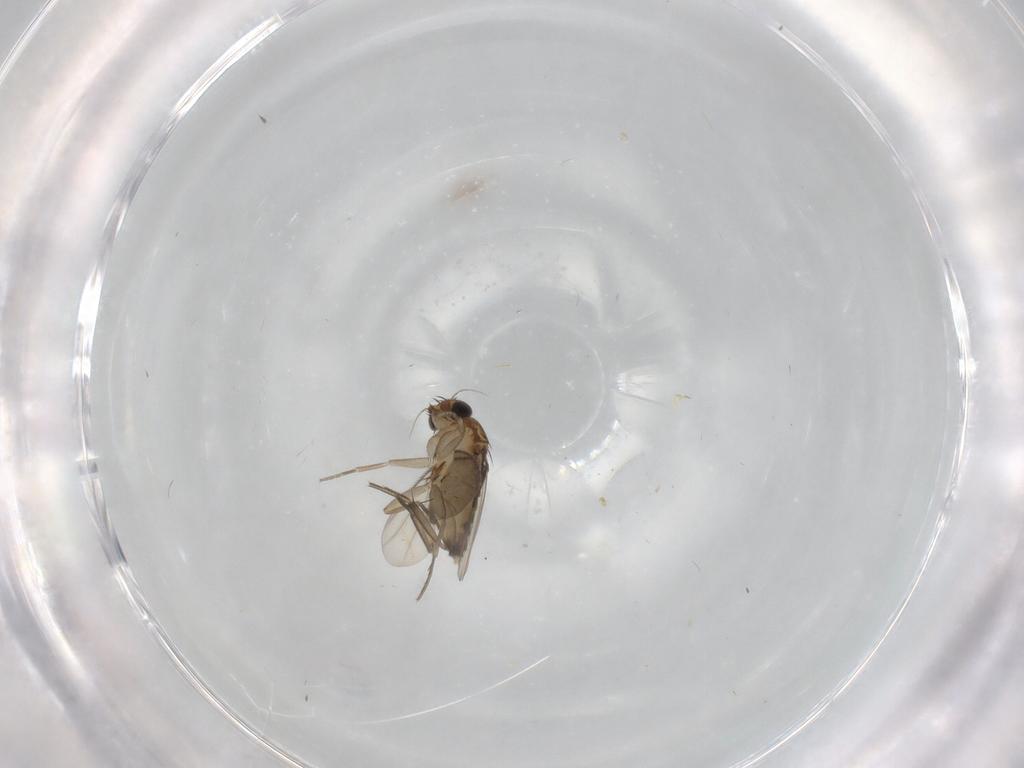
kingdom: Animalia
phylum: Arthropoda
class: Insecta
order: Diptera
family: Phoridae
